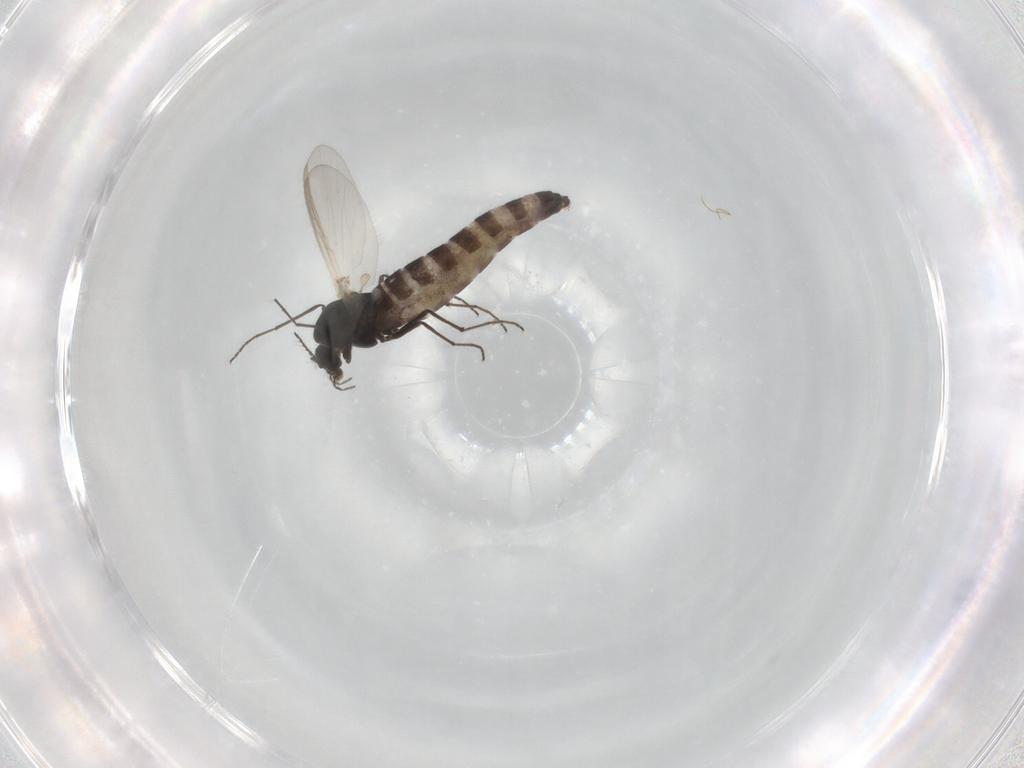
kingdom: Animalia
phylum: Arthropoda
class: Insecta
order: Diptera
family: Chironomidae
